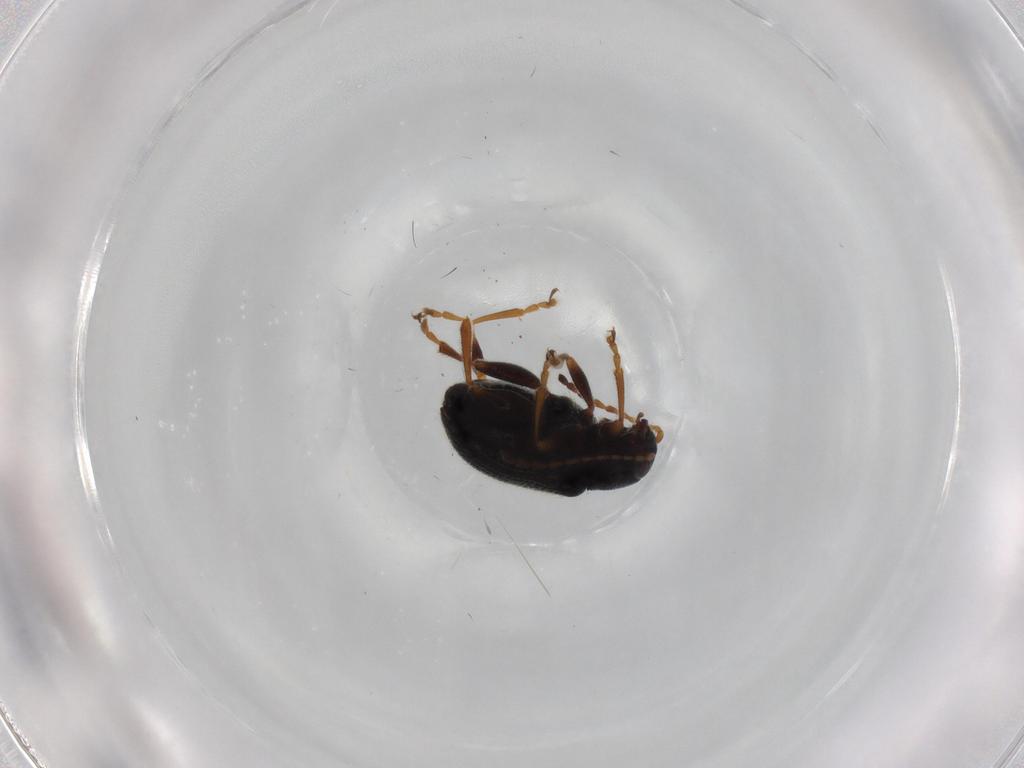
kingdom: Animalia
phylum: Arthropoda
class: Insecta
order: Coleoptera
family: Chrysomelidae
